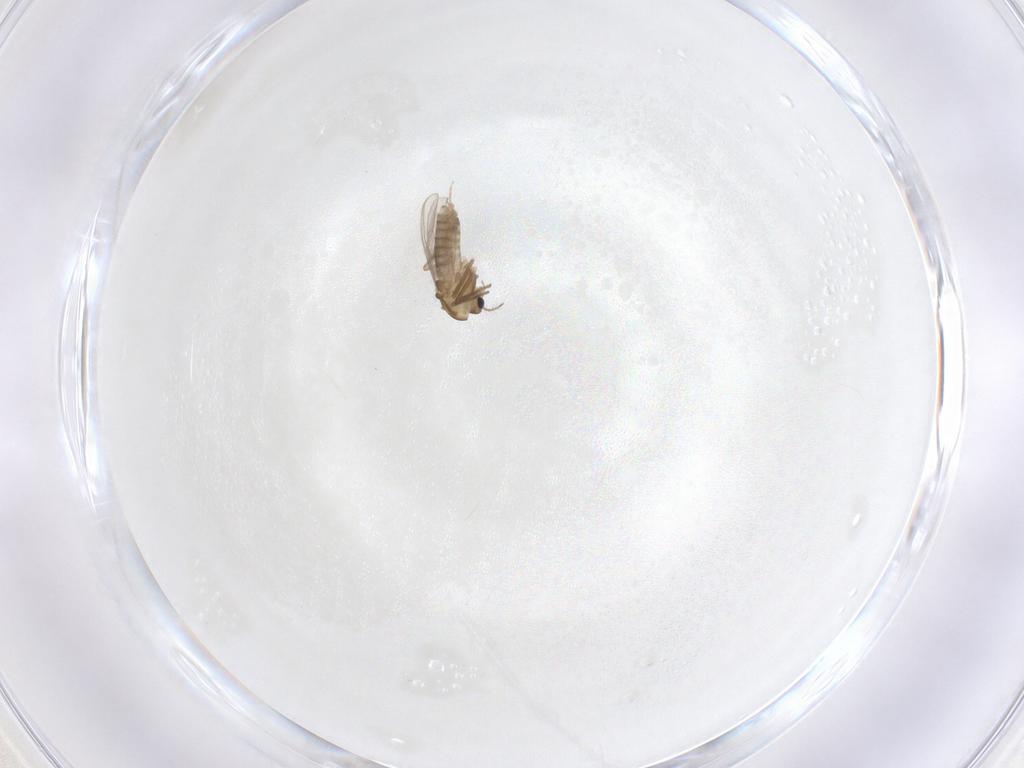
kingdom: Animalia
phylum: Arthropoda
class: Insecta
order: Diptera
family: Chironomidae
